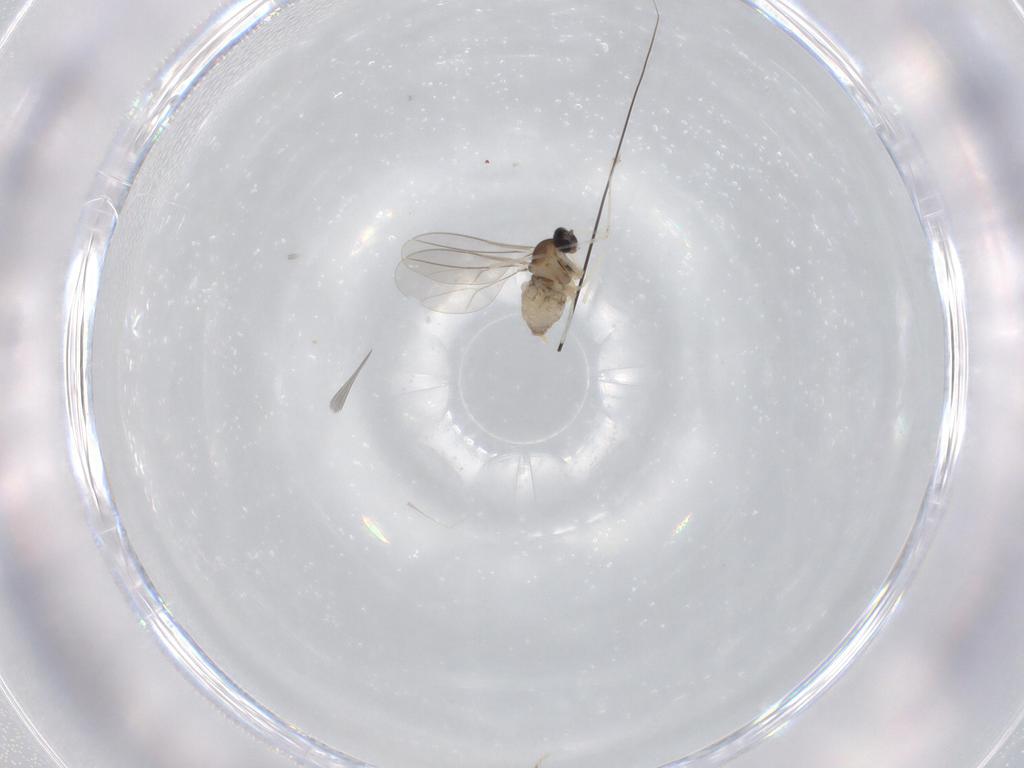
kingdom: Animalia
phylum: Arthropoda
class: Insecta
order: Diptera
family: Cecidomyiidae
